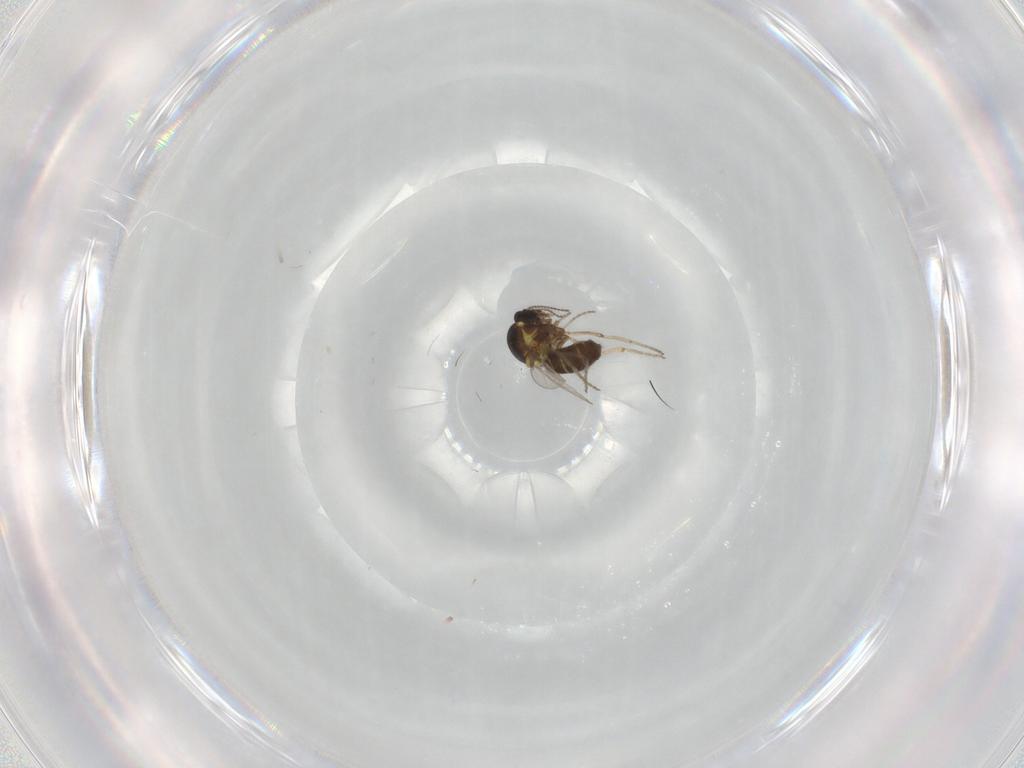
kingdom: Animalia
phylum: Arthropoda
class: Insecta
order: Diptera
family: Ceratopogonidae
